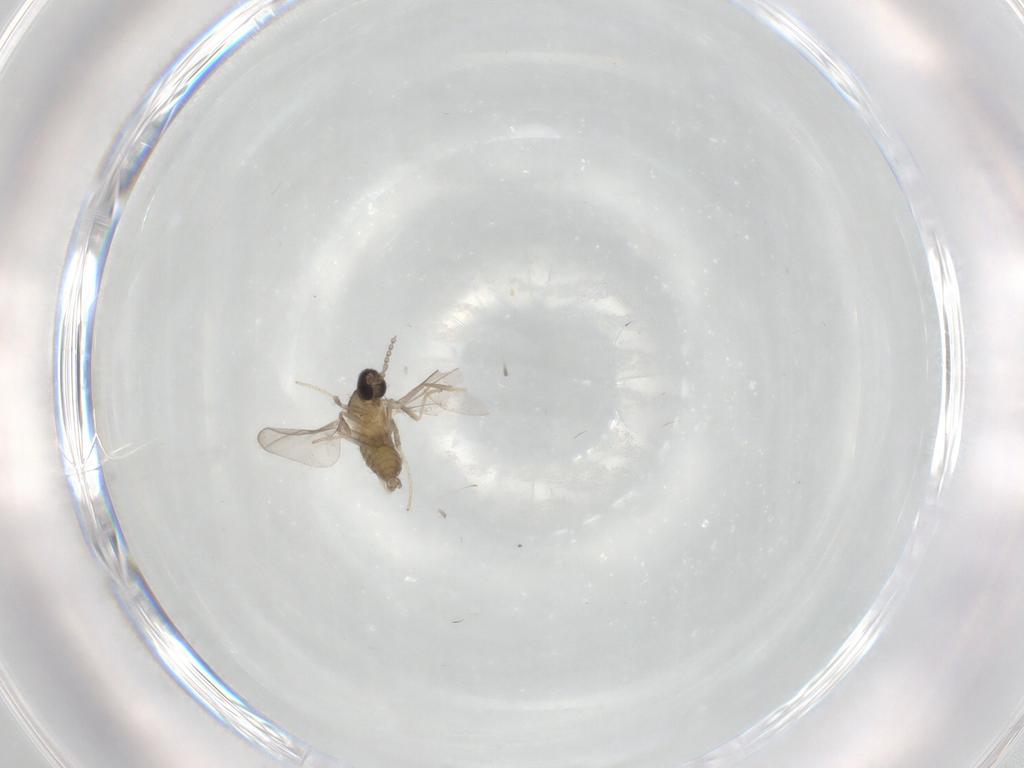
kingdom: Animalia
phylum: Arthropoda
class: Insecta
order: Diptera
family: Cecidomyiidae
